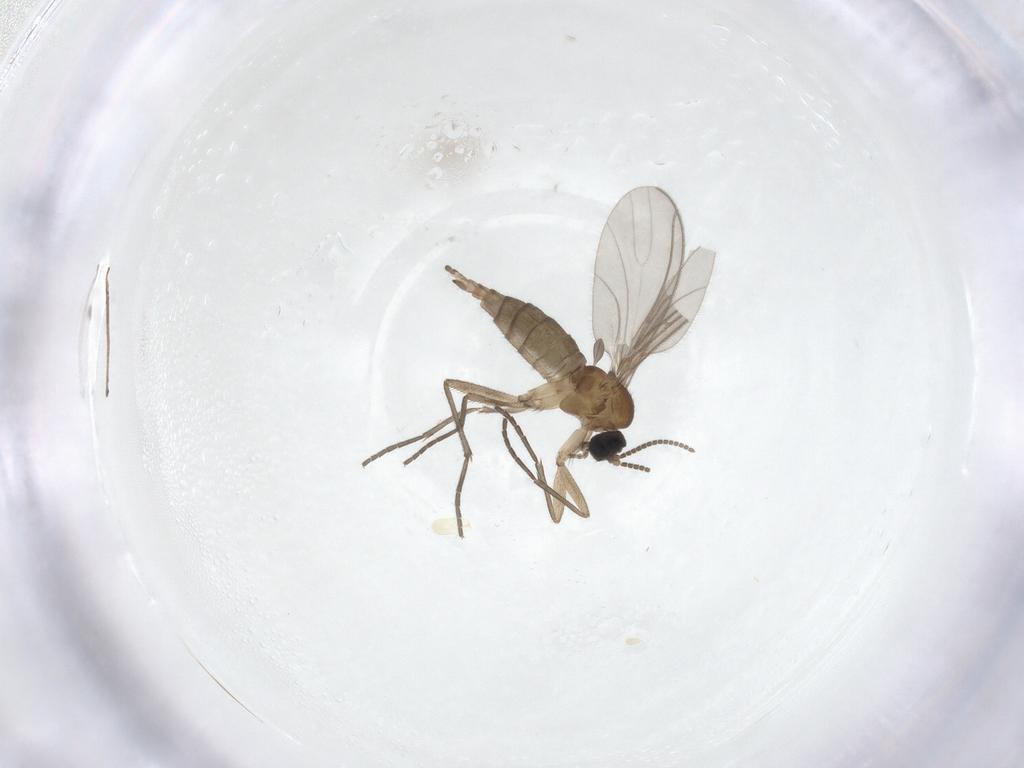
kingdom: Animalia
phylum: Arthropoda
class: Insecta
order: Diptera
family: Sciaridae
